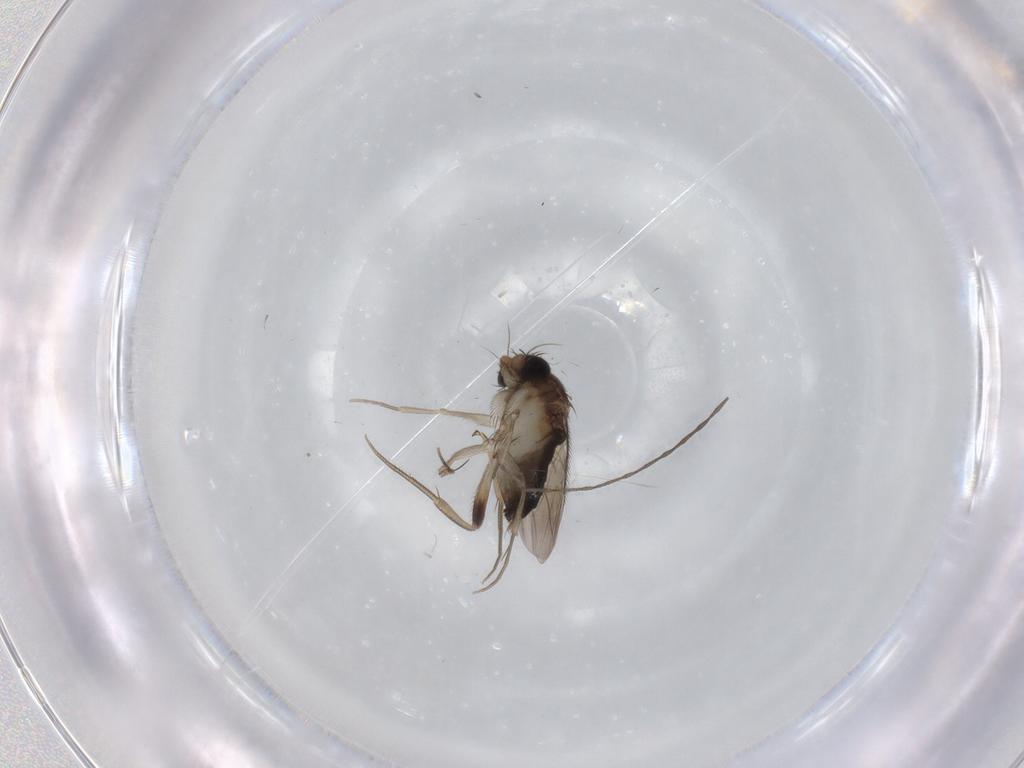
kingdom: Animalia
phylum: Arthropoda
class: Insecta
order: Diptera
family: Phoridae
